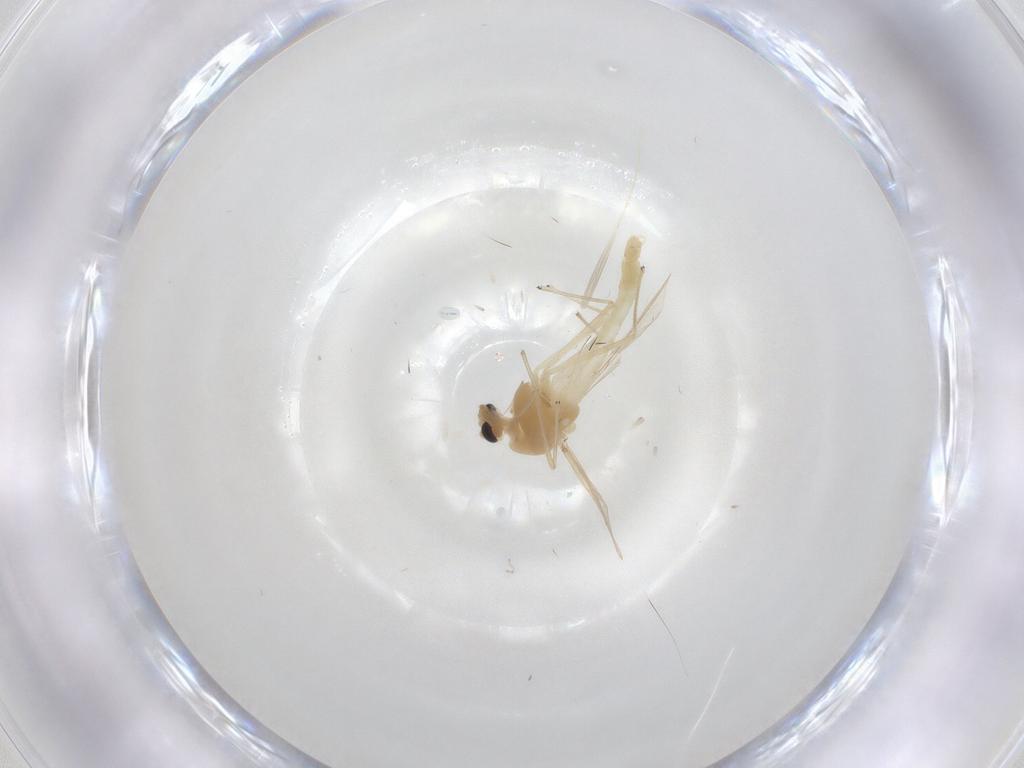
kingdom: Animalia
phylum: Arthropoda
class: Insecta
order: Diptera
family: Chironomidae
